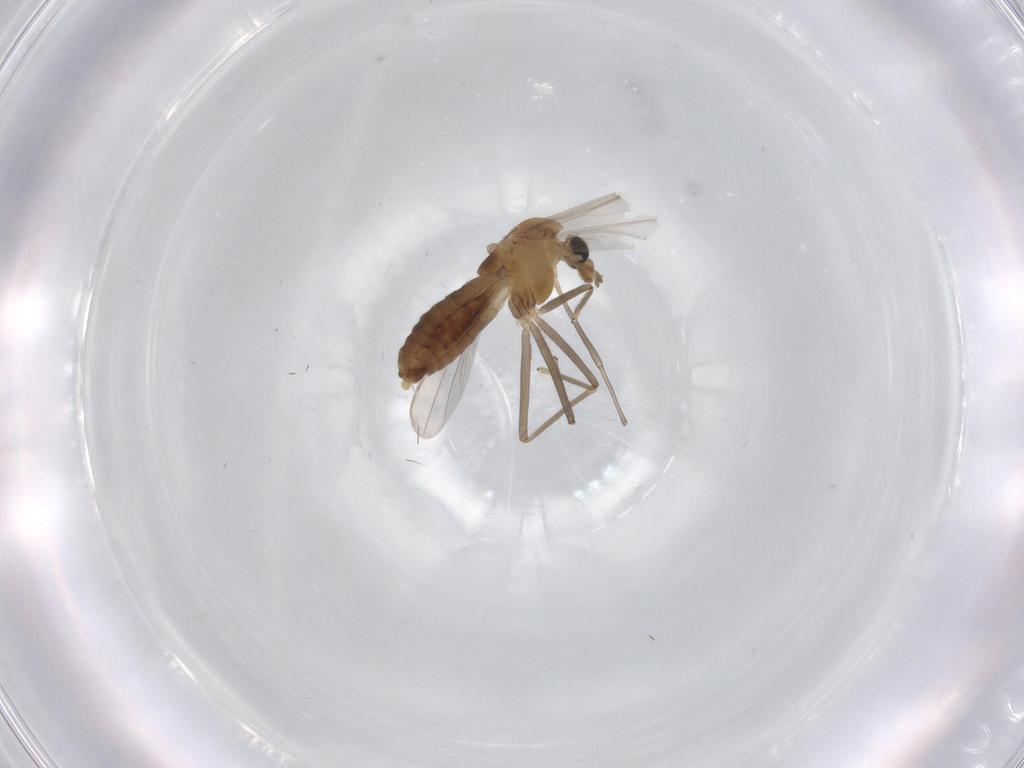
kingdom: Animalia
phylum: Arthropoda
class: Insecta
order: Diptera
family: Chironomidae
